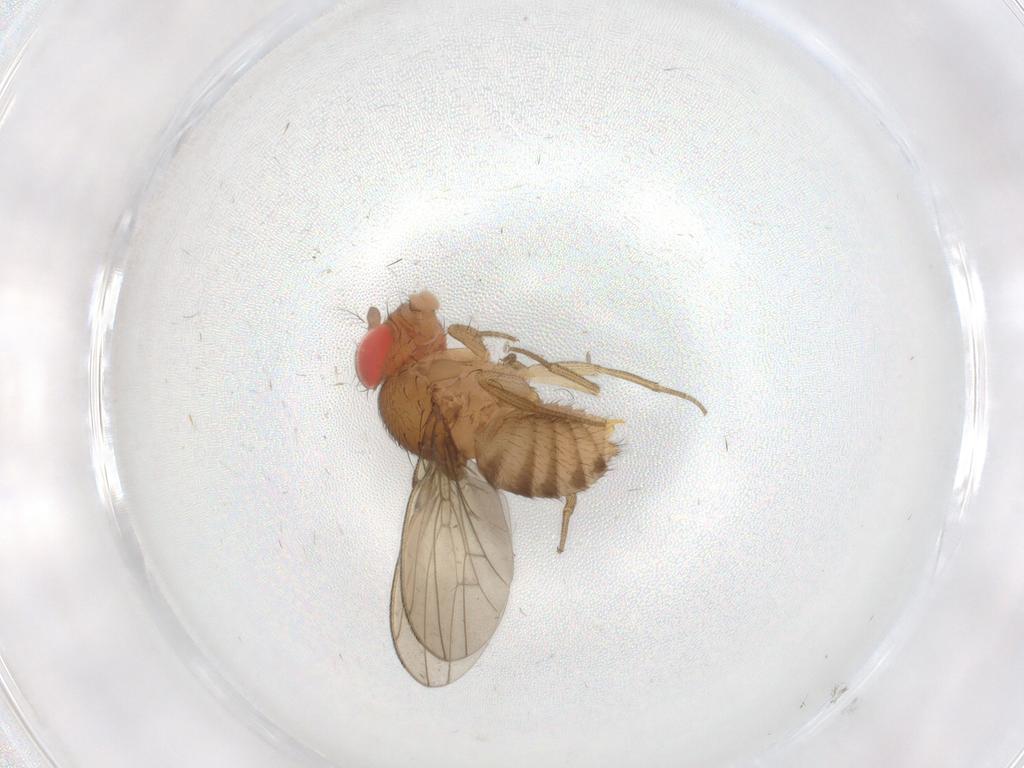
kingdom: Animalia
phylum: Arthropoda
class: Insecta
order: Diptera
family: Drosophilidae
